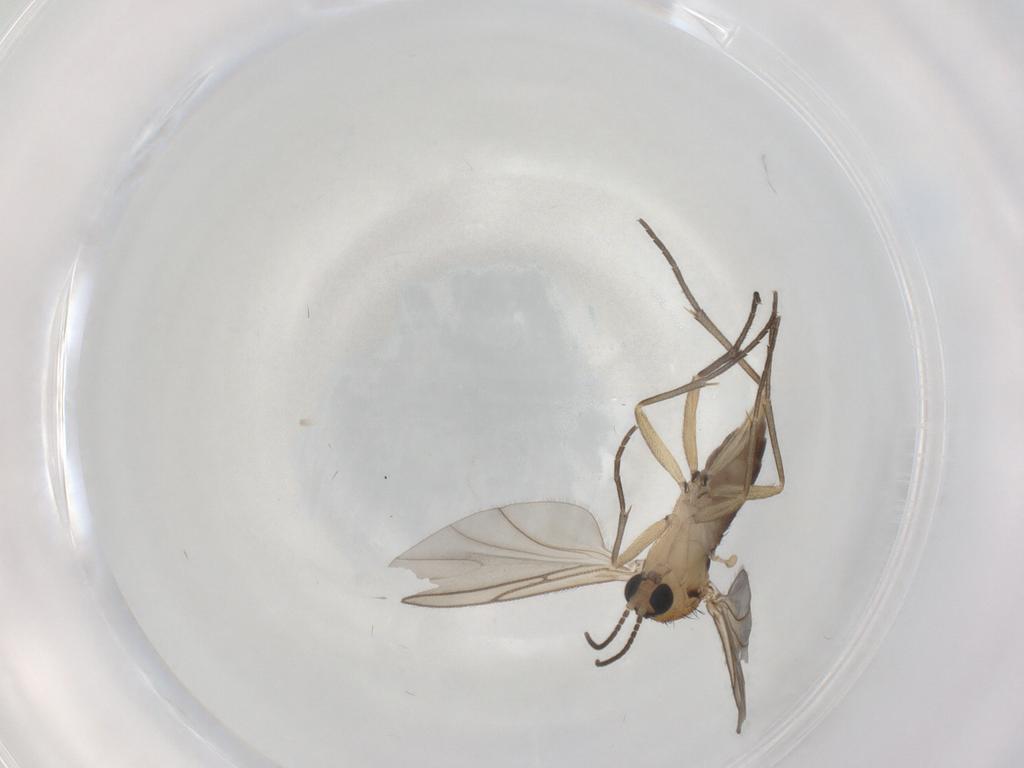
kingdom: Animalia
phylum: Arthropoda
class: Insecta
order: Diptera
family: Sciaridae
